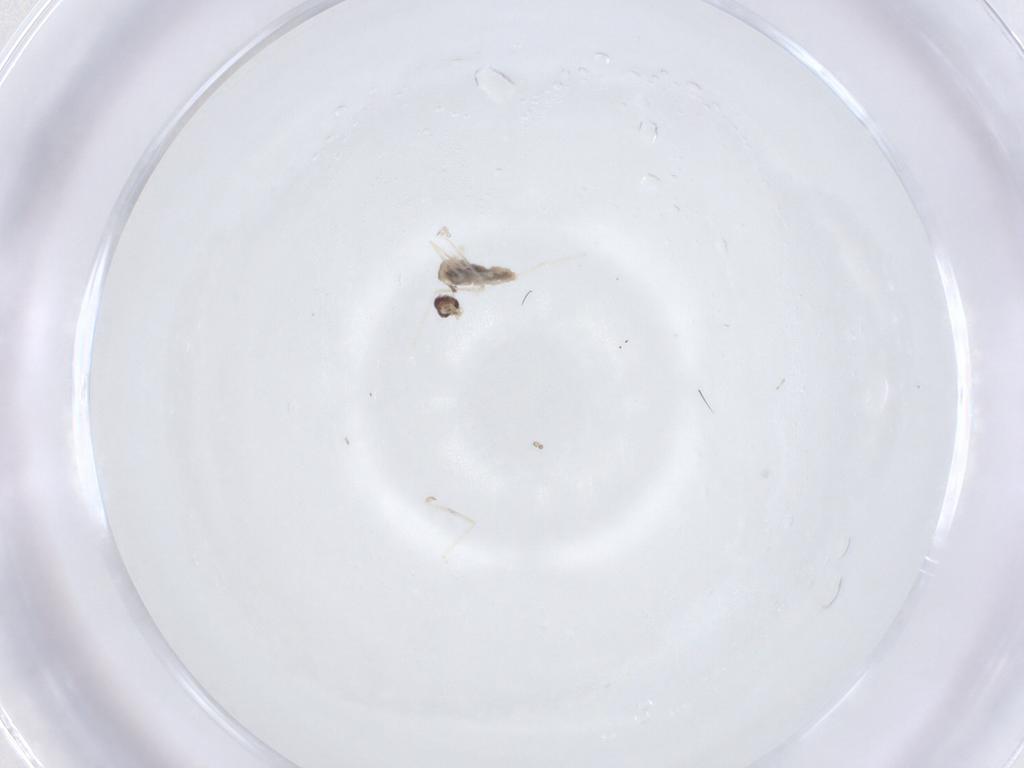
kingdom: Animalia
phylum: Arthropoda
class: Insecta
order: Diptera
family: Cecidomyiidae
